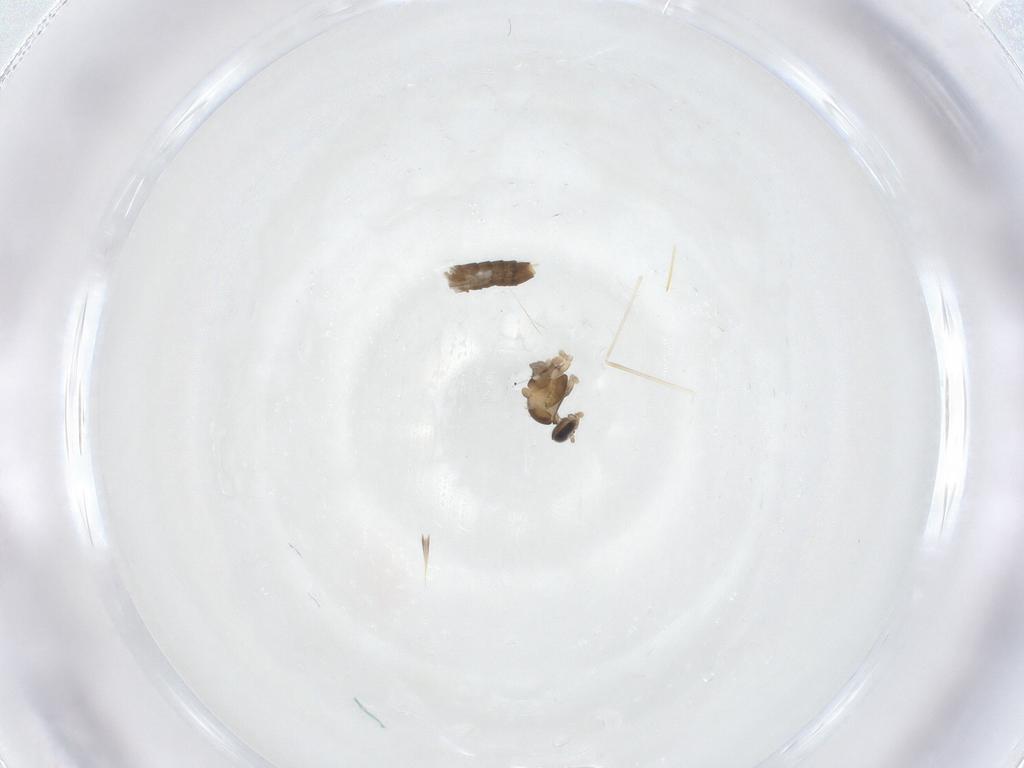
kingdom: Animalia
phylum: Arthropoda
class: Insecta
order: Diptera
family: Cecidomyiidae
